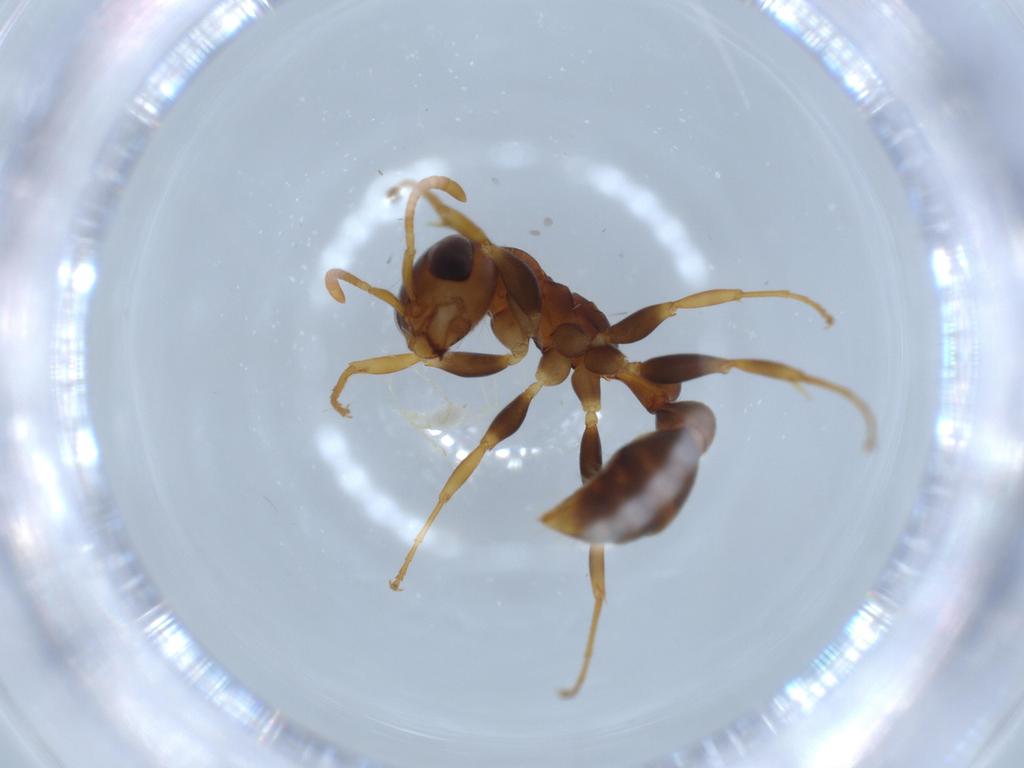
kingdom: Animalia
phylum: Arthropoda
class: Insecta
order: Hymenoptera
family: Formicidae
